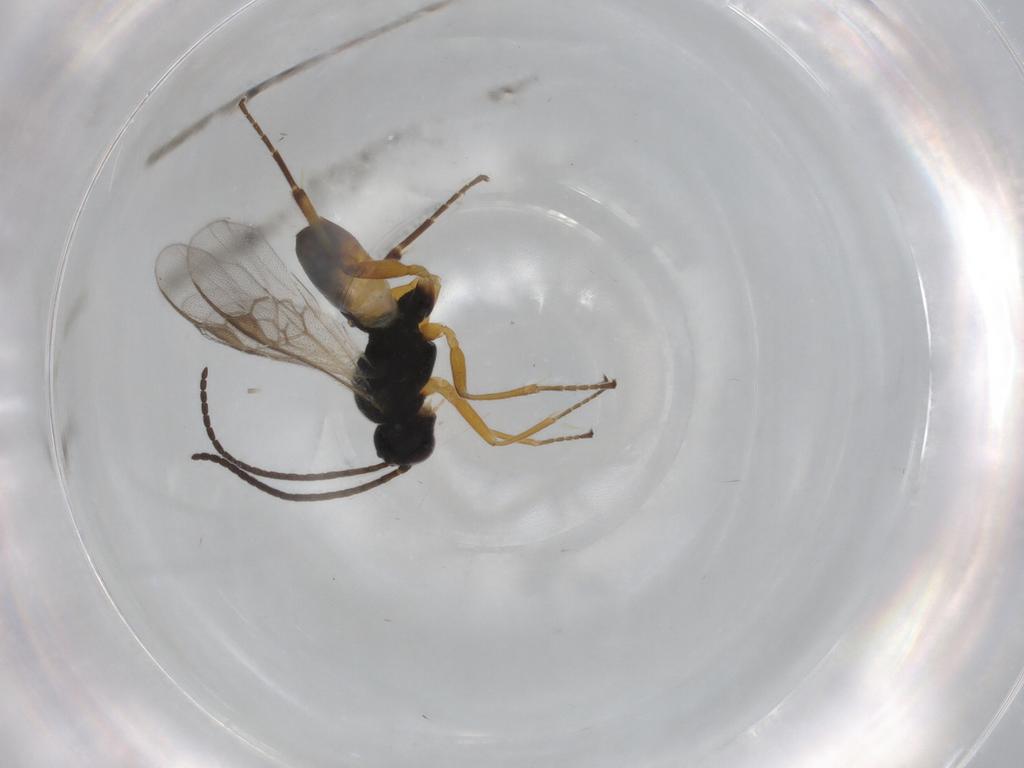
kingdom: Animalia
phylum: Arthropoda
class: Insecta
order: Hymenoptera
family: Braconidae
